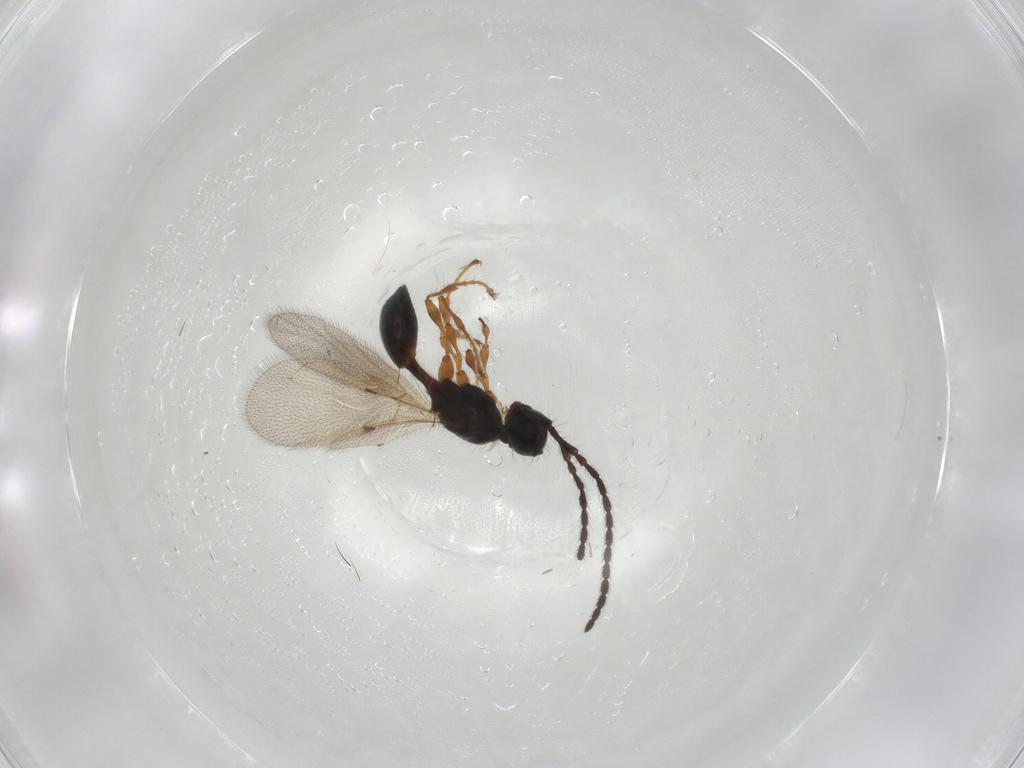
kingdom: Animalia
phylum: Arthropoda
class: Insecta
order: Hymenoptera
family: Diapriidae
